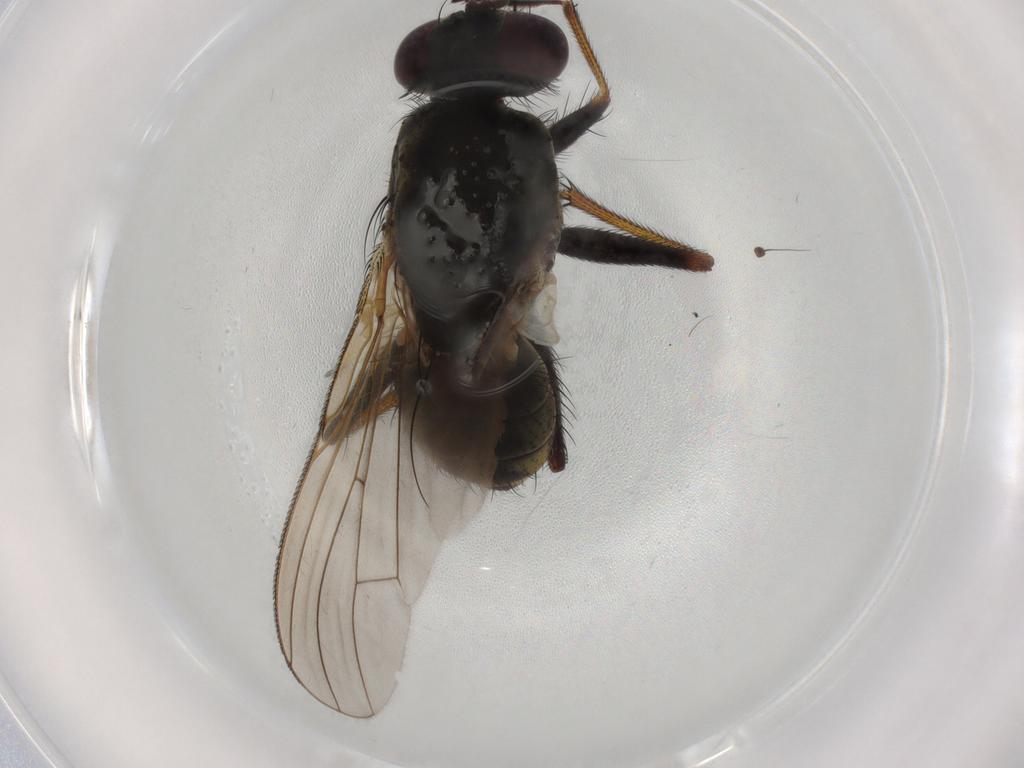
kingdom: Animalia
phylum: Arthropoda
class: Insecta
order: Diptera
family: Muscidae
